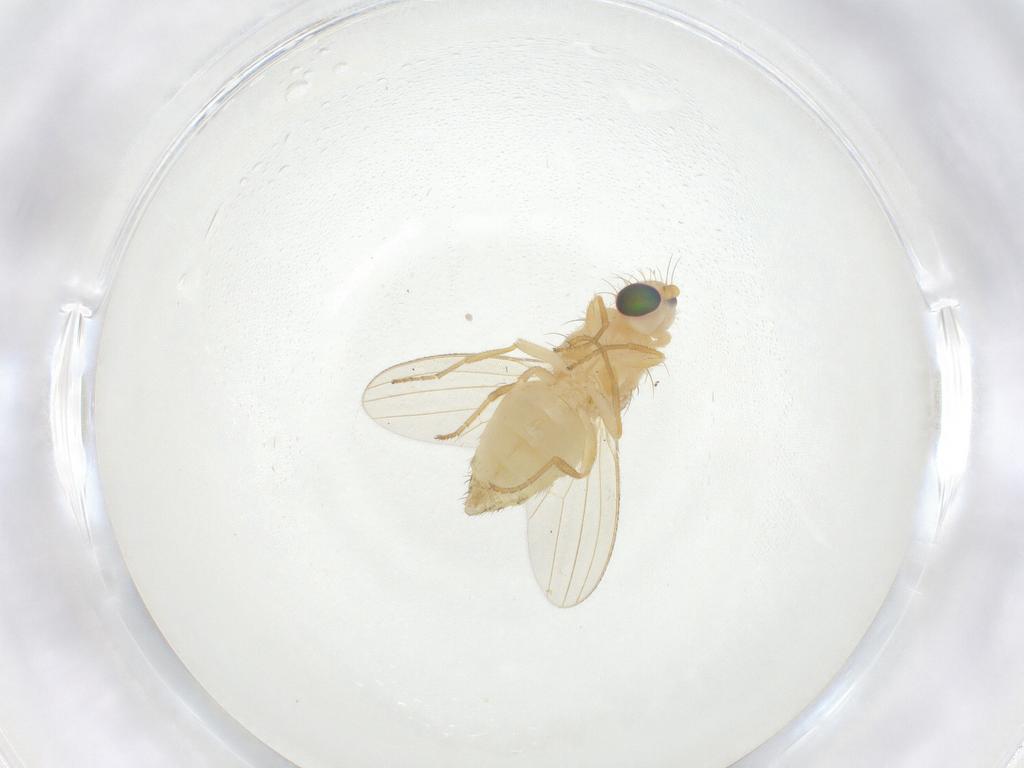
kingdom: Animalia
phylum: Arthropoda
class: Insecta
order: Diptera
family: Chyromyidae
